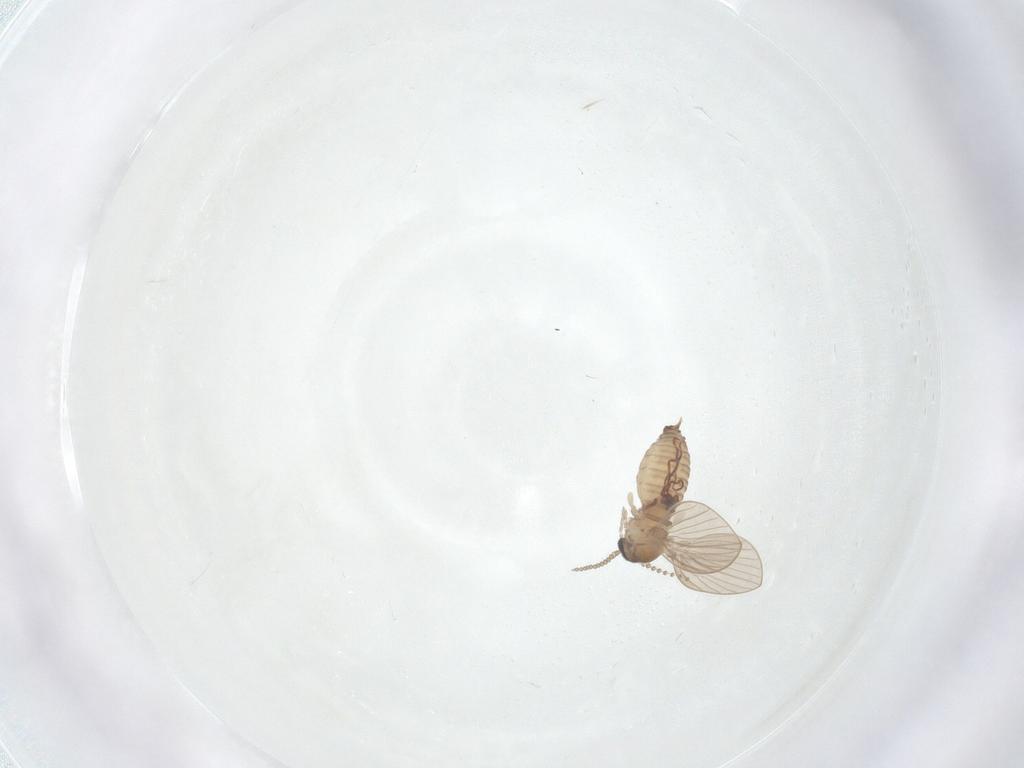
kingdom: Animalia
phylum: Arthropoda
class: Insecta
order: Diptera
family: Psychodidae
